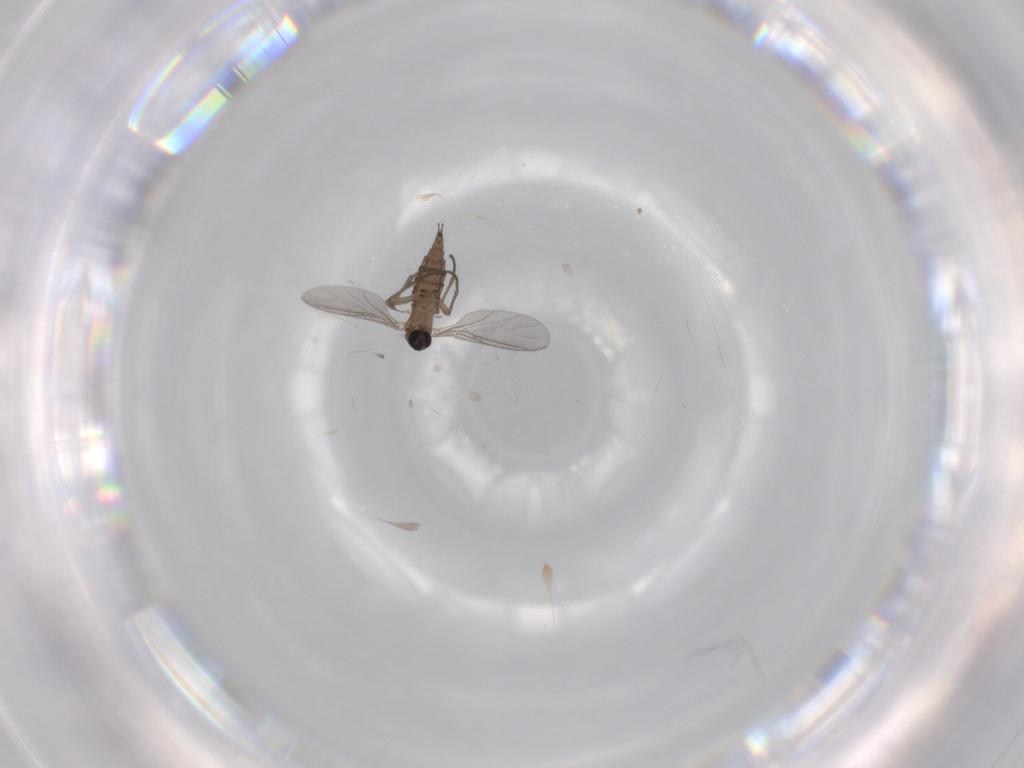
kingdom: Animalia
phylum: Arthropoda
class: Insecta
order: Diptera
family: Sciaridae
